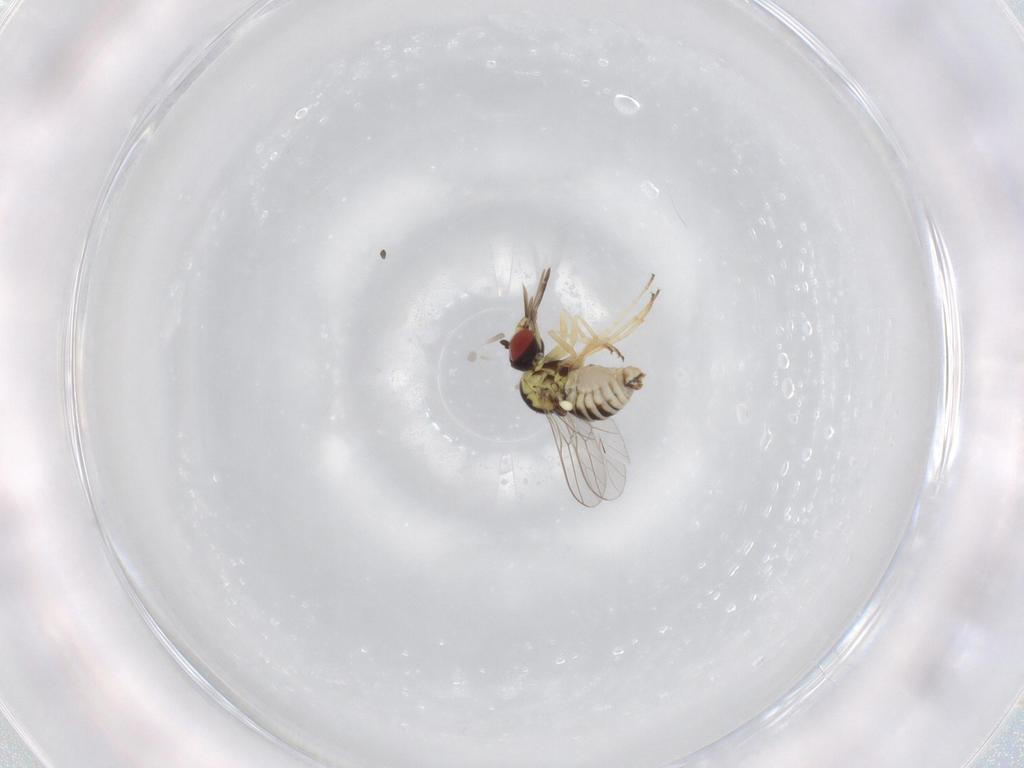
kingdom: Animalia
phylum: Arthropoda
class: Insecta
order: Diptera
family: Bombyliidae
